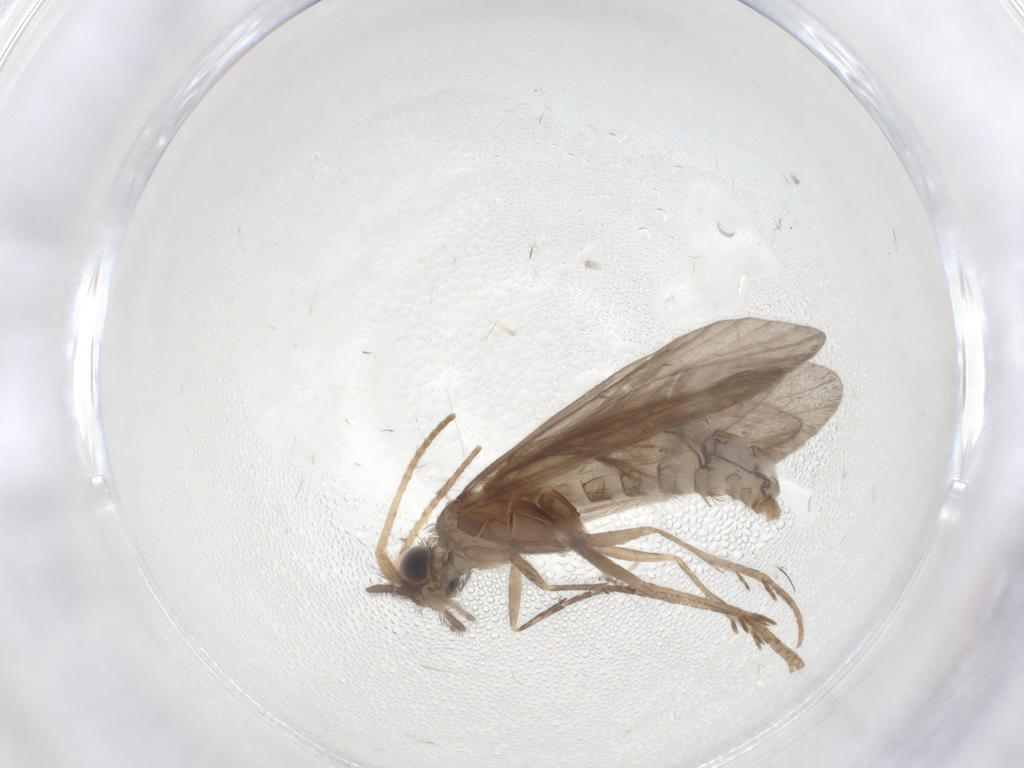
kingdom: Animalia
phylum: Arthropoda
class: Insecta
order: Trichoptera
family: Helicopsychidae
